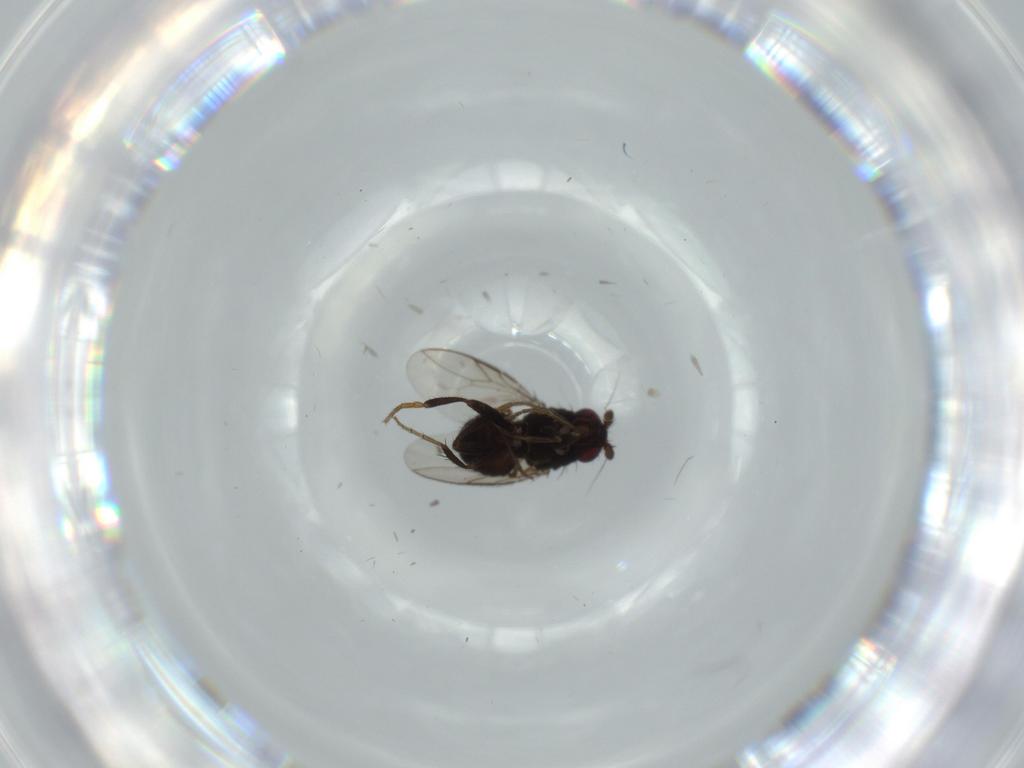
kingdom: Animalia
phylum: Arthropoda
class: Insecta
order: Diptera
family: Sphaeroceridae
